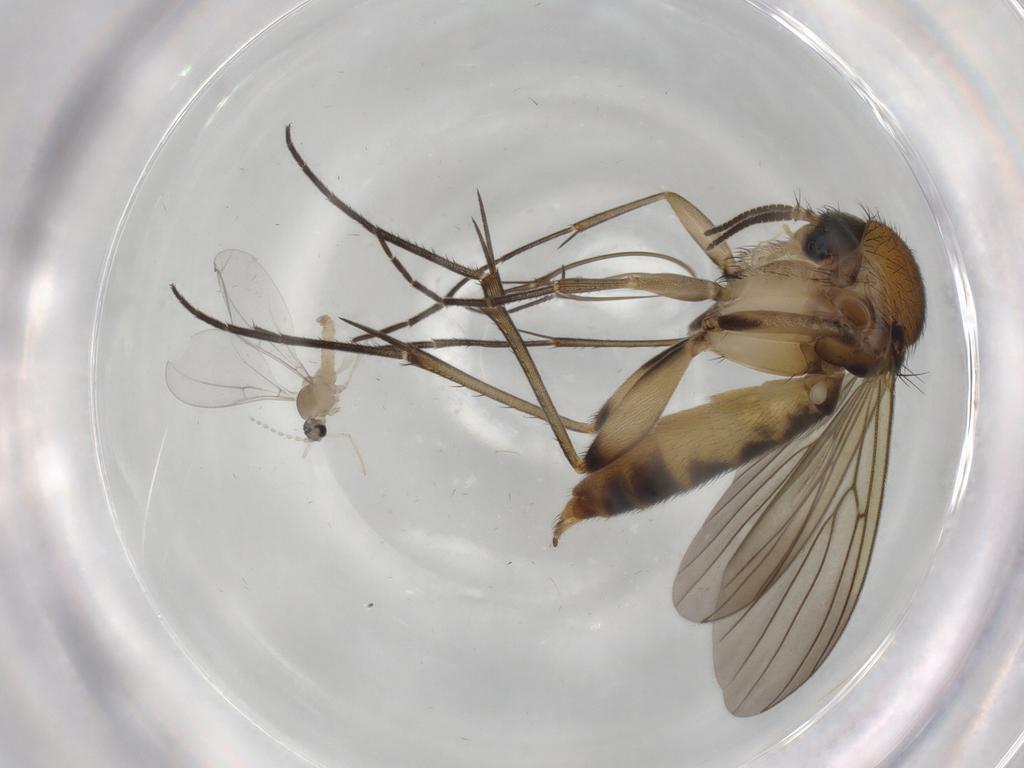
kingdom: Animalia
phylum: Arthropoda
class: Insecta
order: Diptera
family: Mycetophilidae
